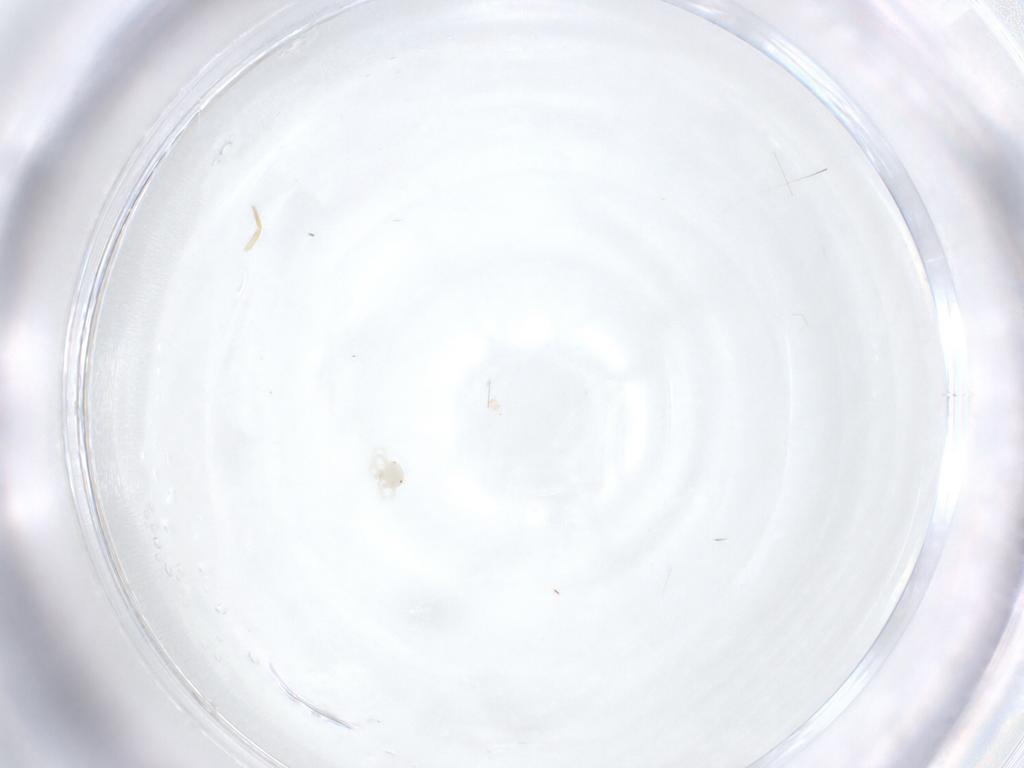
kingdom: Animalia
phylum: Arthropoda
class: Arachnida
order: Trombidiformes
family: Anystidae
